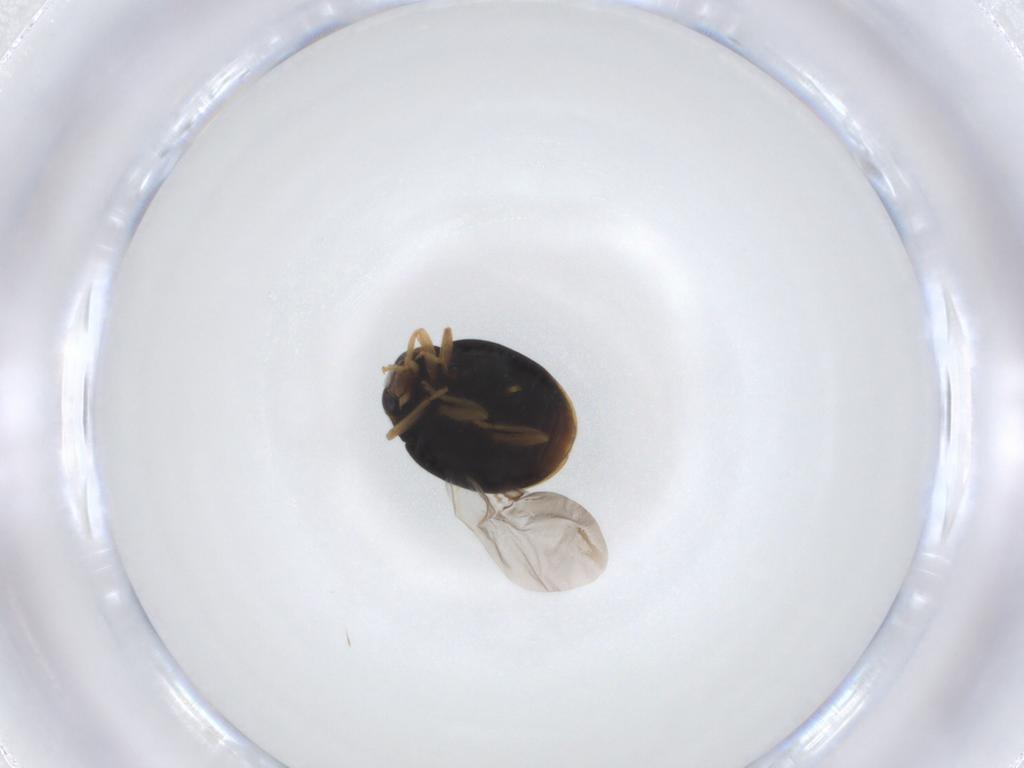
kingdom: Animalia
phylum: Arthropoda
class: Insecta
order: Coleoptera
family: Coccinellidae
